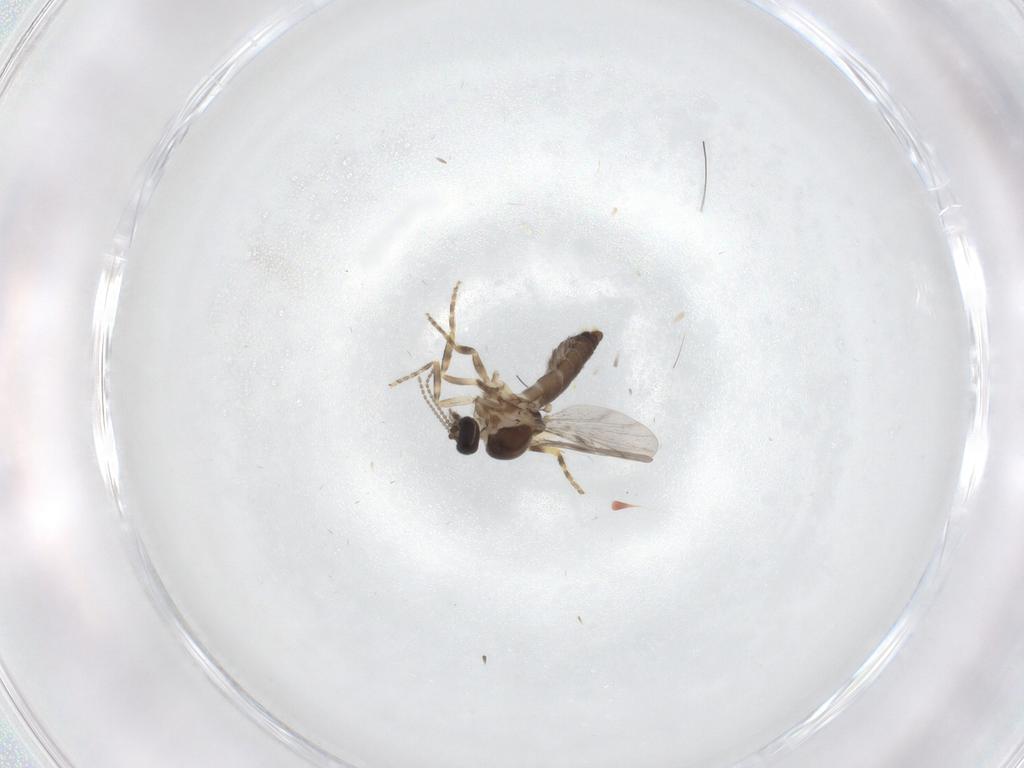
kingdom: Animalia
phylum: Arthropoda
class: Insecta
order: Diptera
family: Ceratopogonidae
